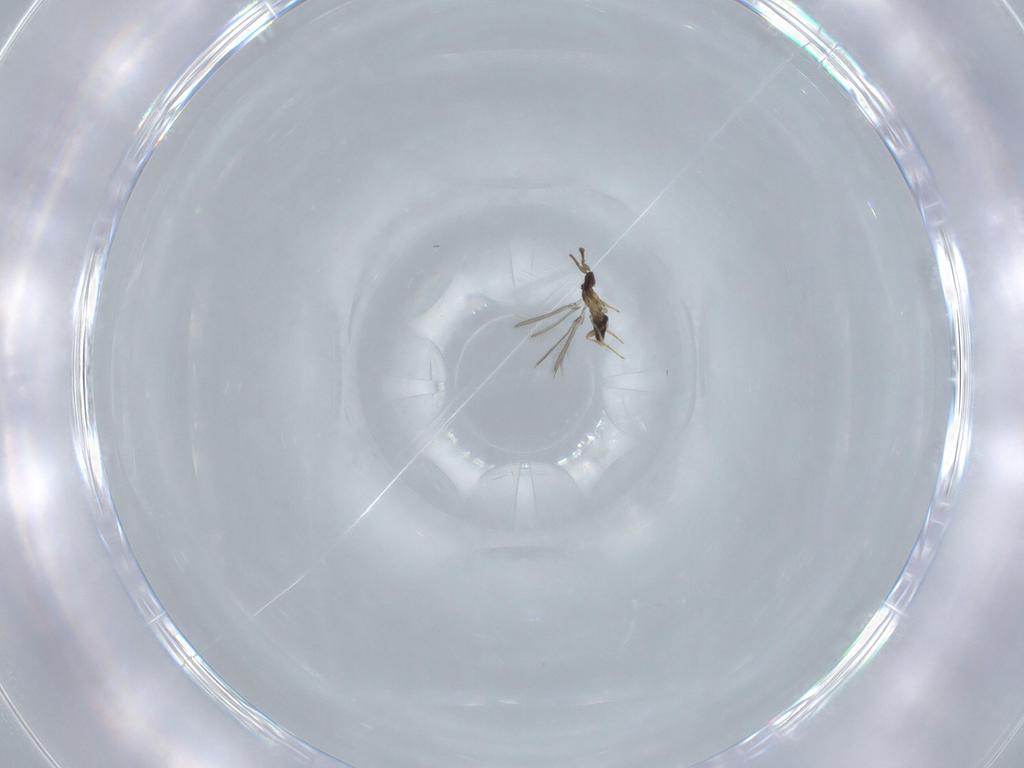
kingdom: Animalia
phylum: Arthropoda
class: Insecta
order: Hymenoptera
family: Mymaridae
